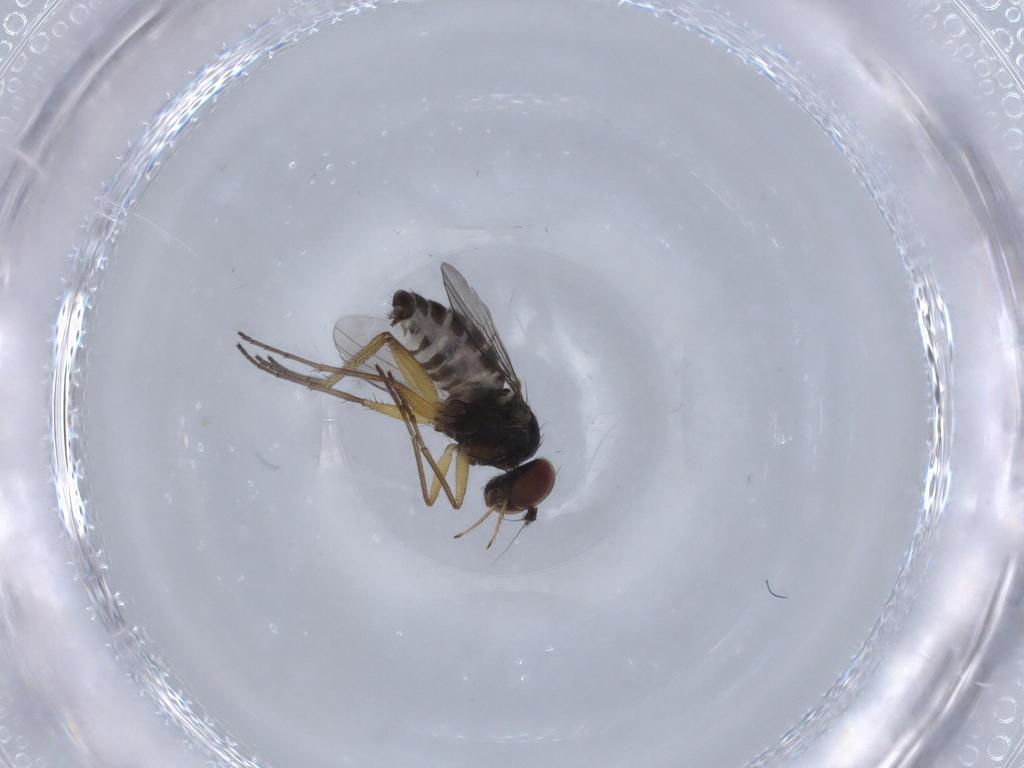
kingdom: Animalia
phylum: Arthropoda
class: Insecta
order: Diptera
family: Dolichopodidae
